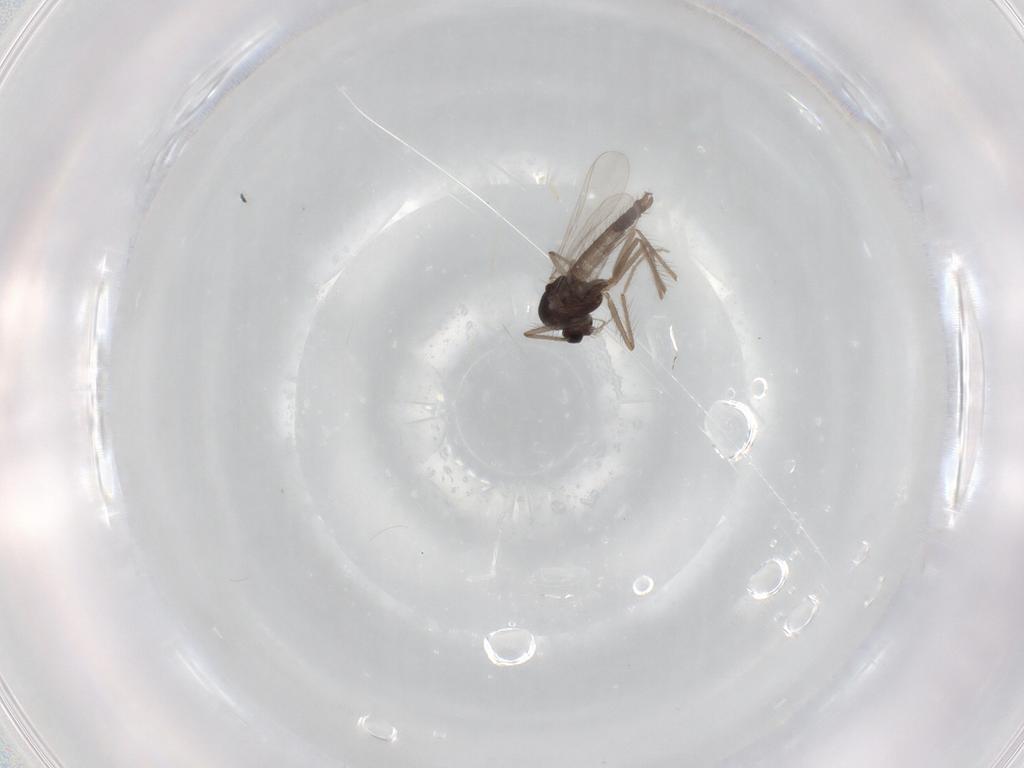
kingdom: Animalia
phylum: Arthropoda
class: Insecta
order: Diptera
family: Chironomidae
